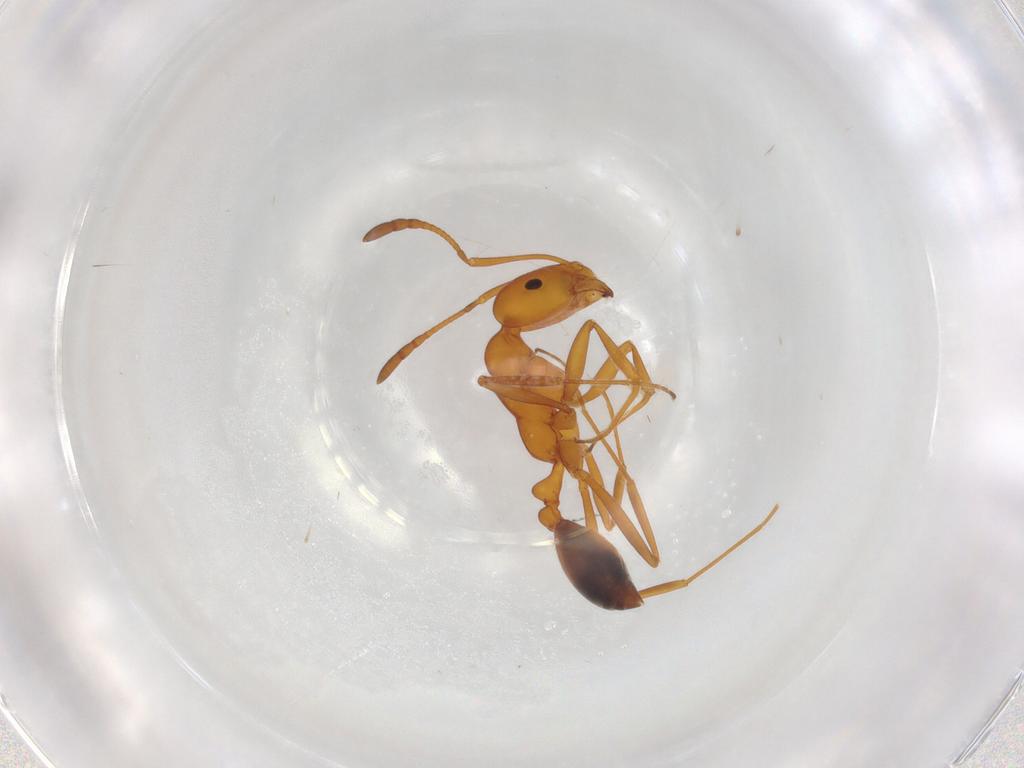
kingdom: Animalia
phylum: Arthropoda
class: Insecta
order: Hymenoptera
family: Formicidae
